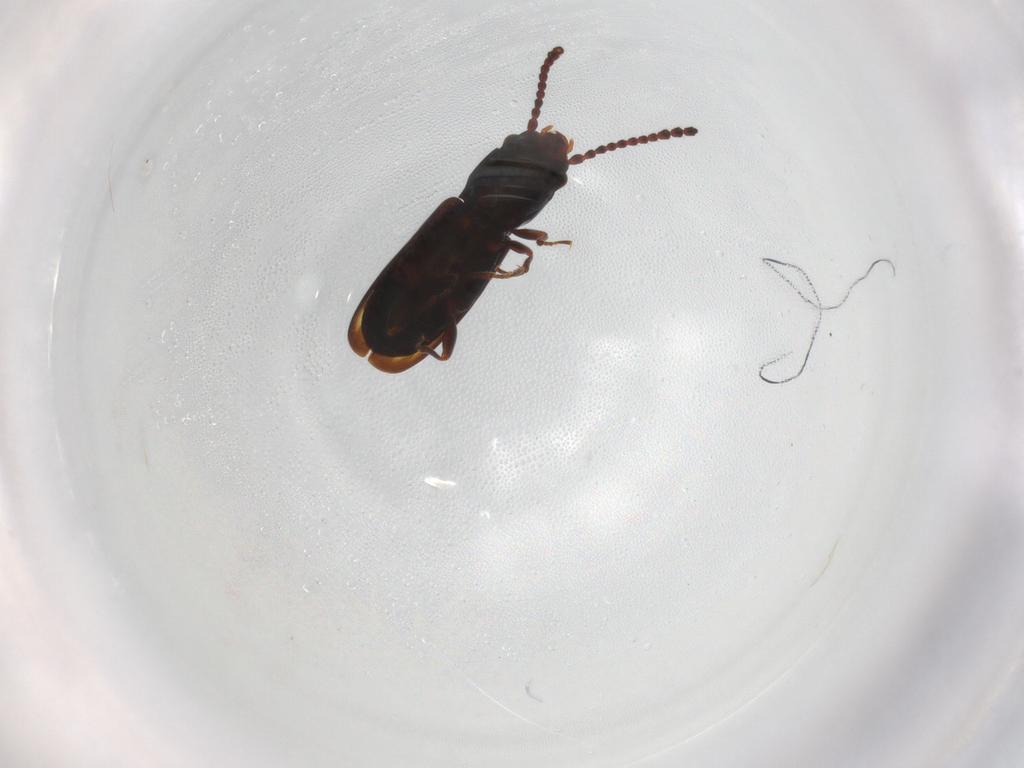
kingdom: Animalia
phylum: Arthropoda
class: Insecta
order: Coleoptera
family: Laemophloeidae
